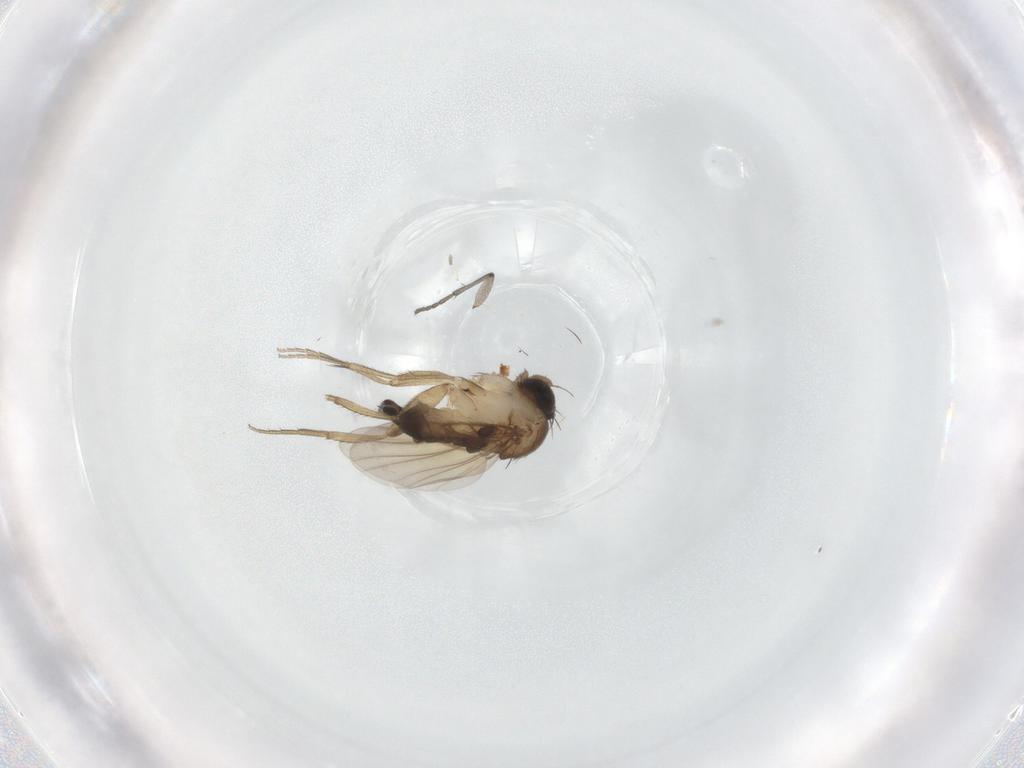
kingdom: Animalia
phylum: Arthropoda
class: Insecta
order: Diptera
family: Phoridae
